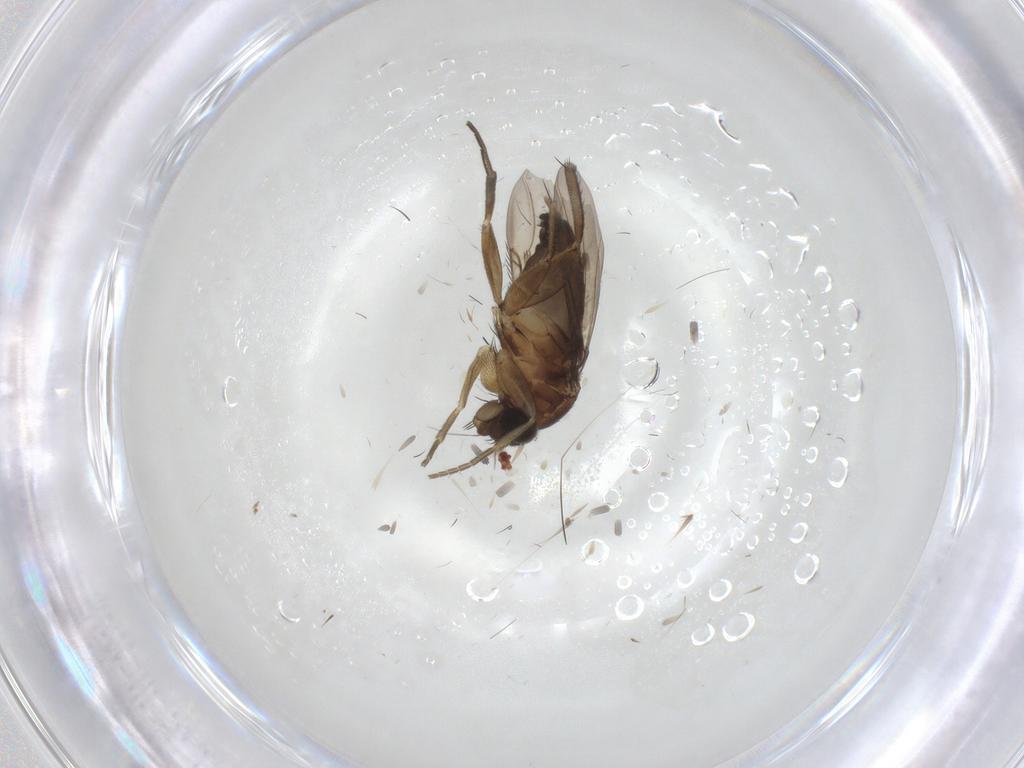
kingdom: Animalia
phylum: Arthropoda
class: Insecta
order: Diptera
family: Phoridae
